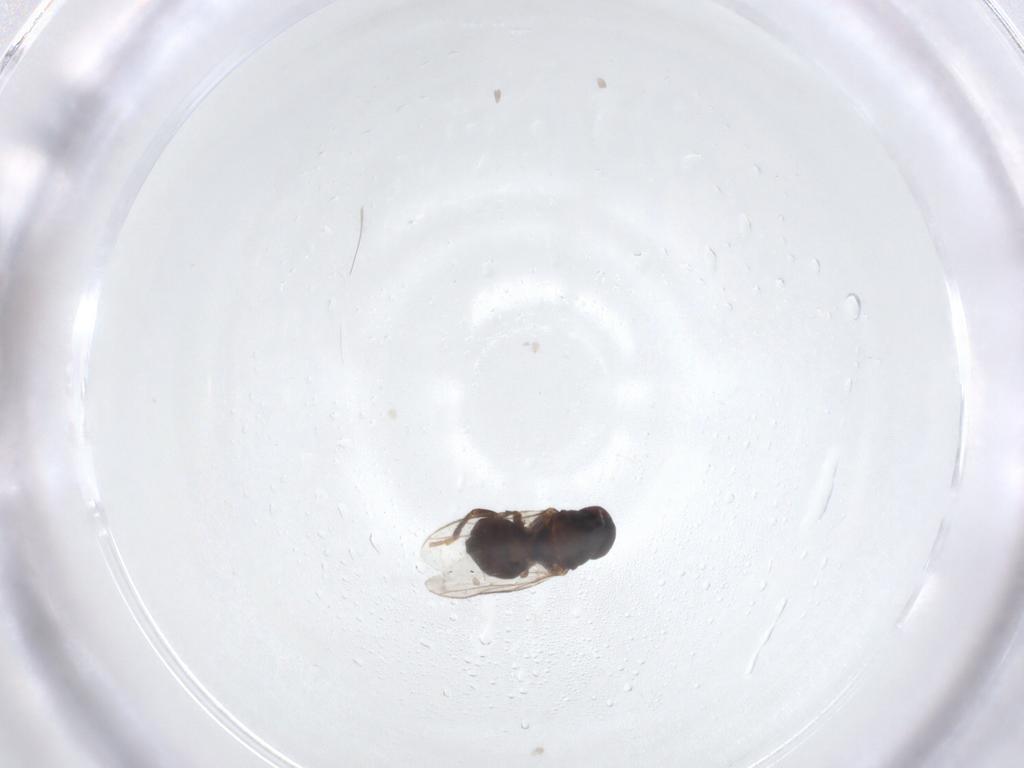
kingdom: Animalia
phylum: Arthropoda
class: Insecta
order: Diptera
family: Sphaeroceridae
